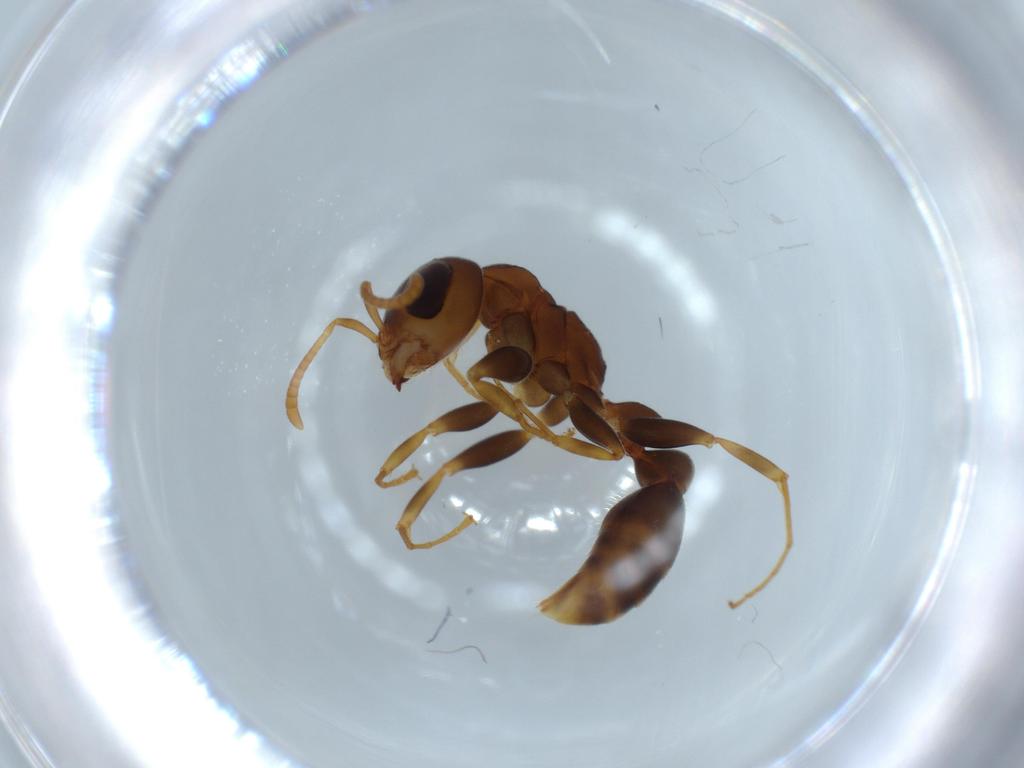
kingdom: Animalia
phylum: Arthropoda
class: Insecta
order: Hymenoptera
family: Formicidae
